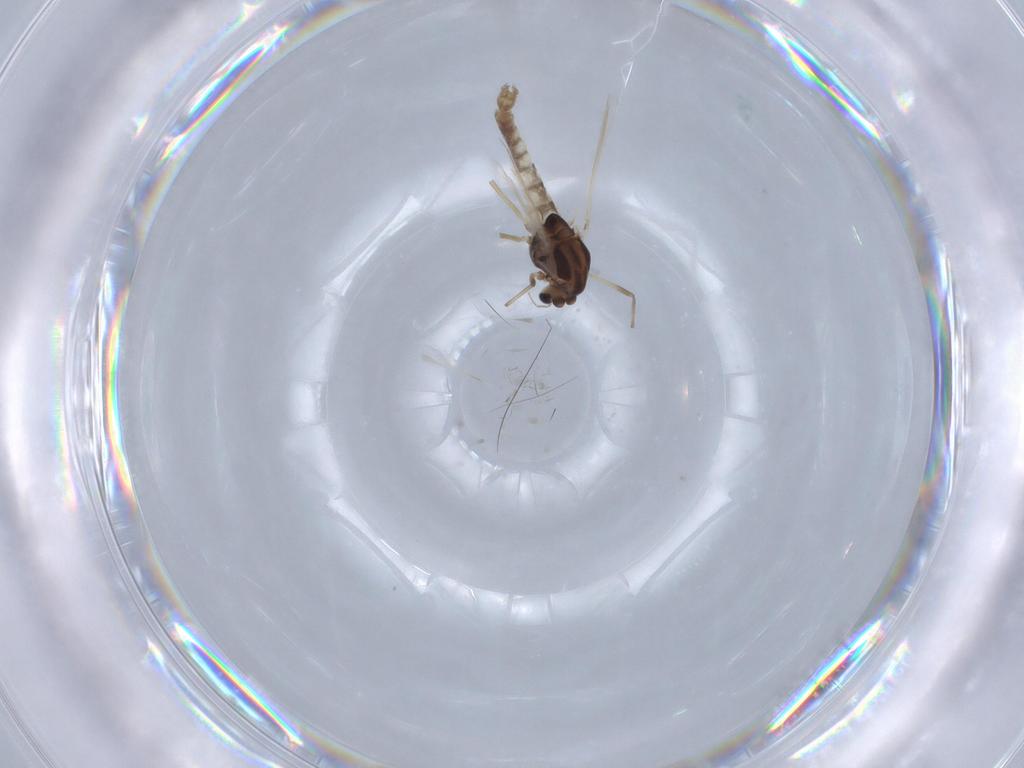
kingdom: Animalia
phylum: Arthropoda
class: Insecta
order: Diptera
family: Chironomidae
